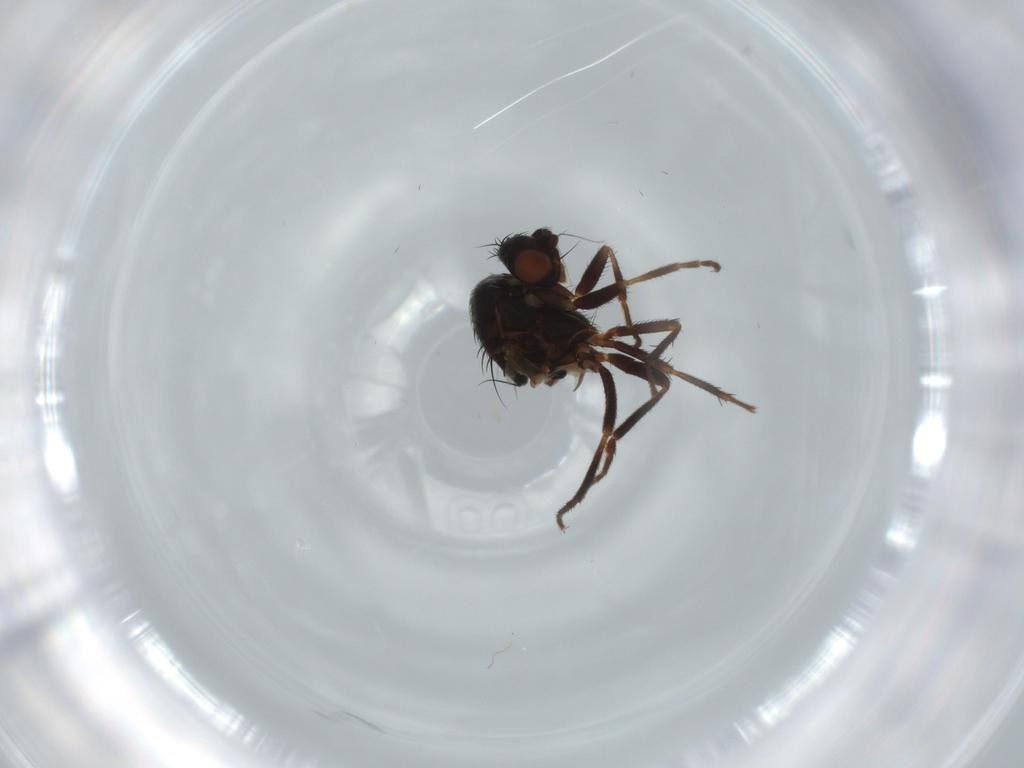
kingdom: Animalia
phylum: Arthropoda
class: Insecta
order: Diptera
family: Sphaeroceridae
